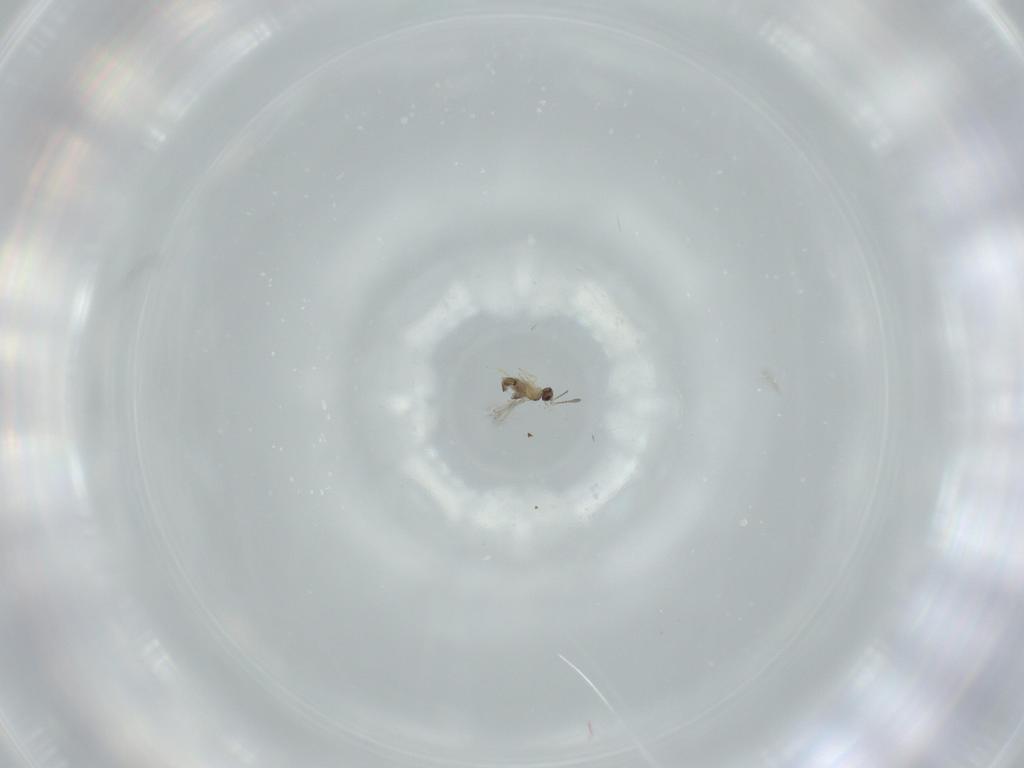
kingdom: Animalia
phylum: Arthropoda
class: Insecta
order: Hymenoptera
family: Mymaridae
